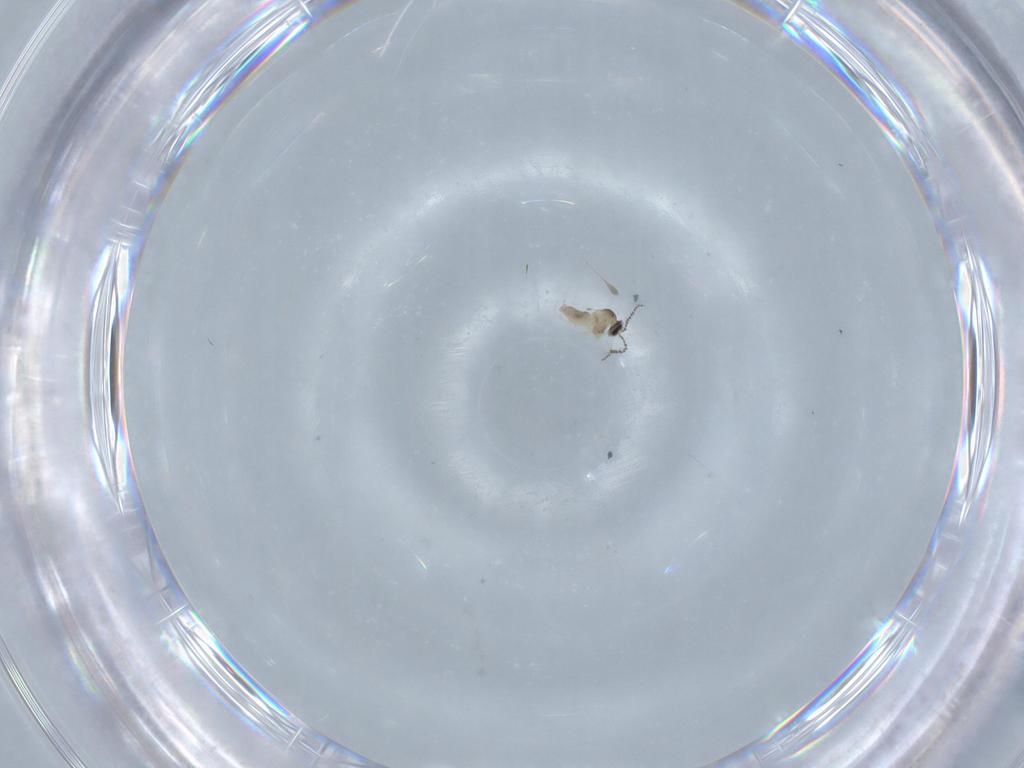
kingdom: Animalia
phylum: Arthropoda
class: Insecta
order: Diptera
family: Cecidomyiidae
